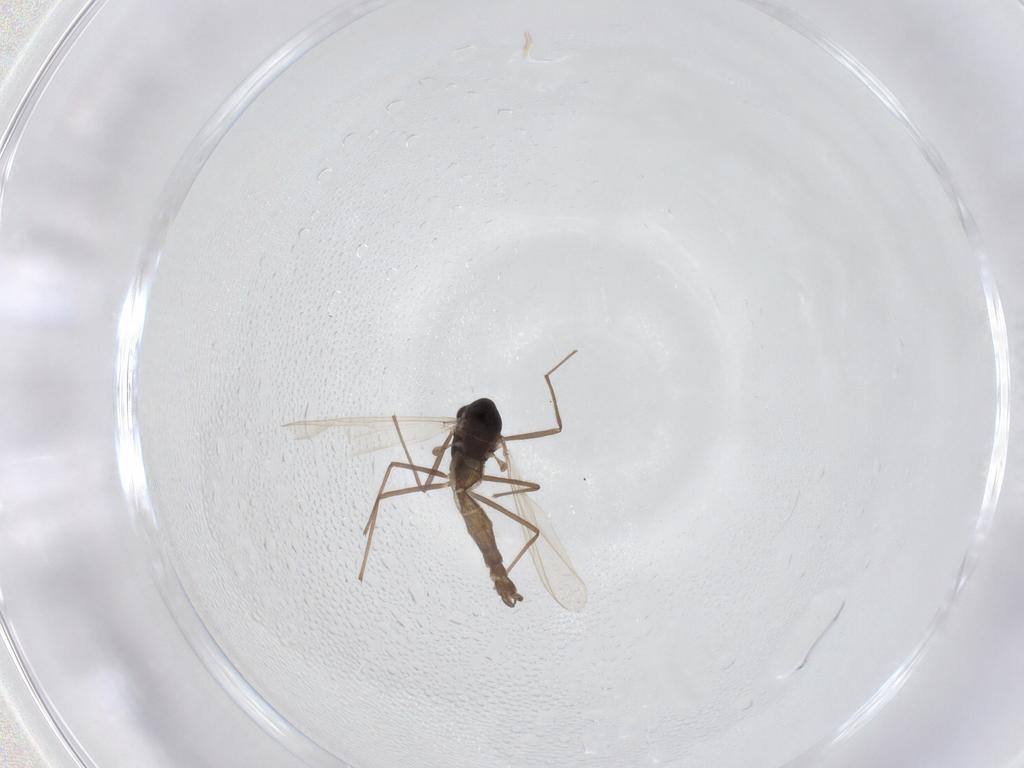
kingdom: Animalia
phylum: Arthropoda
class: Insecta
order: Diptera
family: Chironomidae
